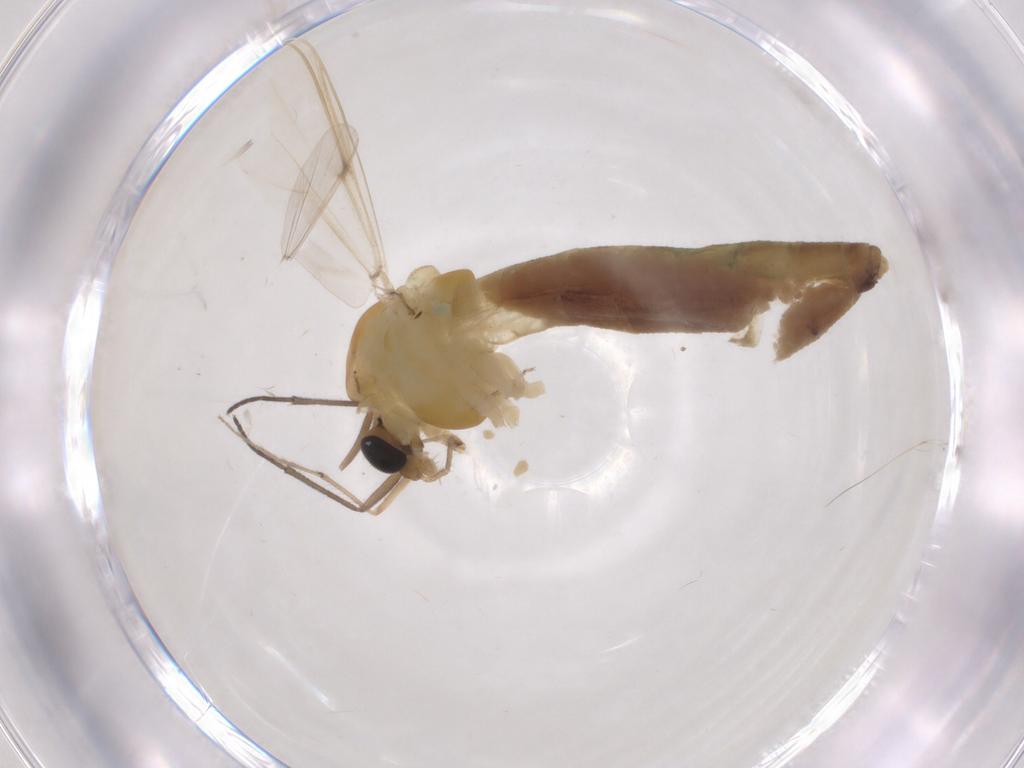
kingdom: Animalia
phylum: Arthropoda
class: Insecta
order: Diptera
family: Chironomidae
